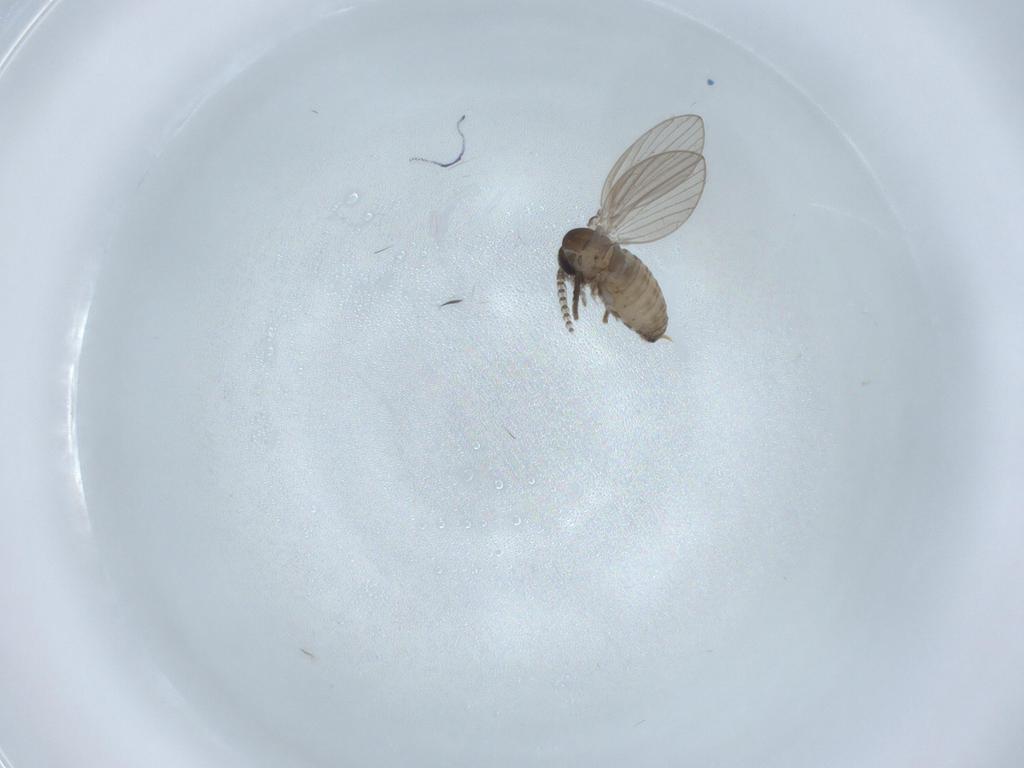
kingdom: Animalia
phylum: Arthropoda
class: Insecta
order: Diptera
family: Psychodidae
